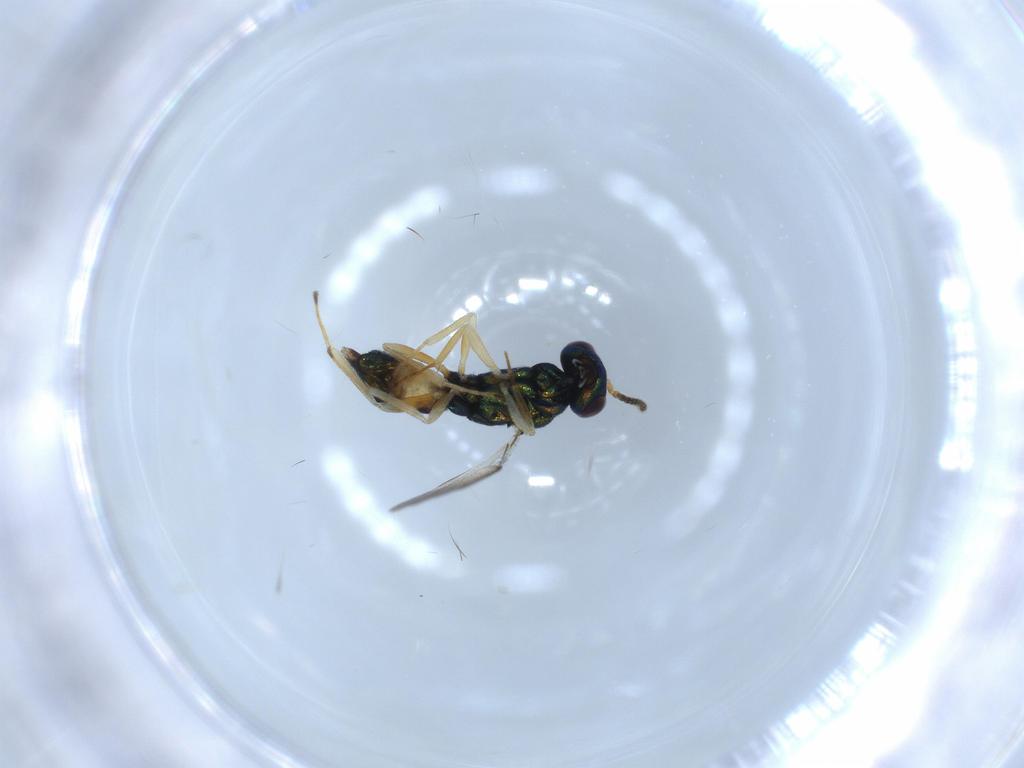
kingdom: Animalia
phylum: Arthropoda
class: Insecta
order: Hymenoptera
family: Pteromalidae
